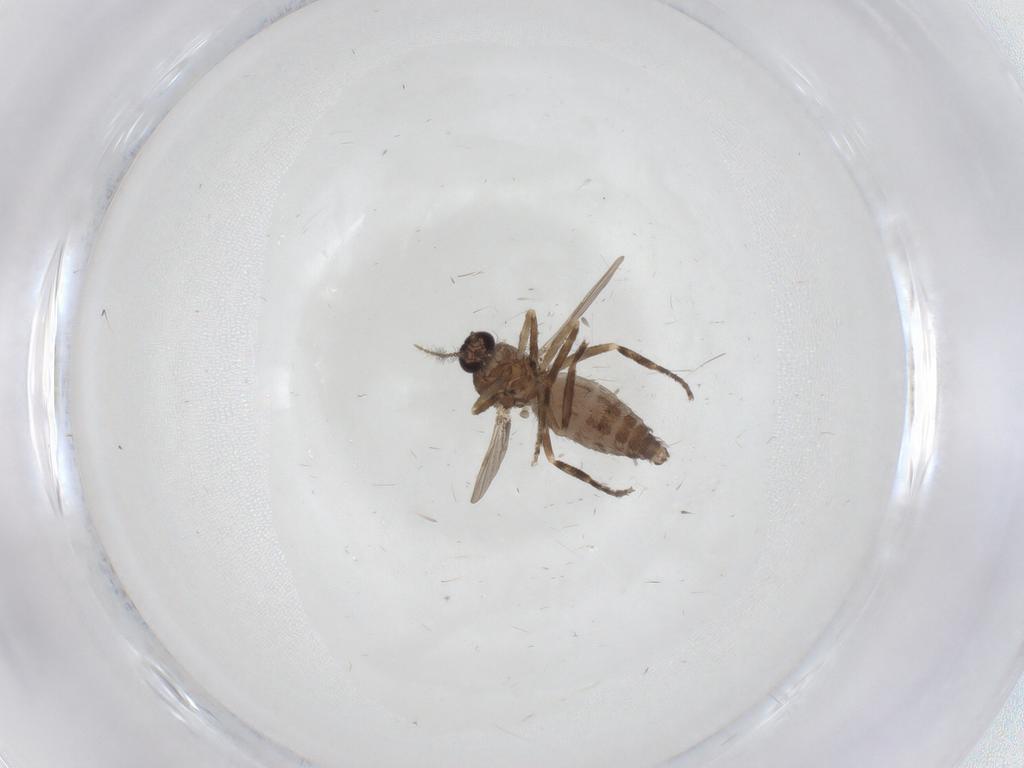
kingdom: Animalia
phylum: Arthropoda
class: Insecta
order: Diptera
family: Ceratopogonidae
